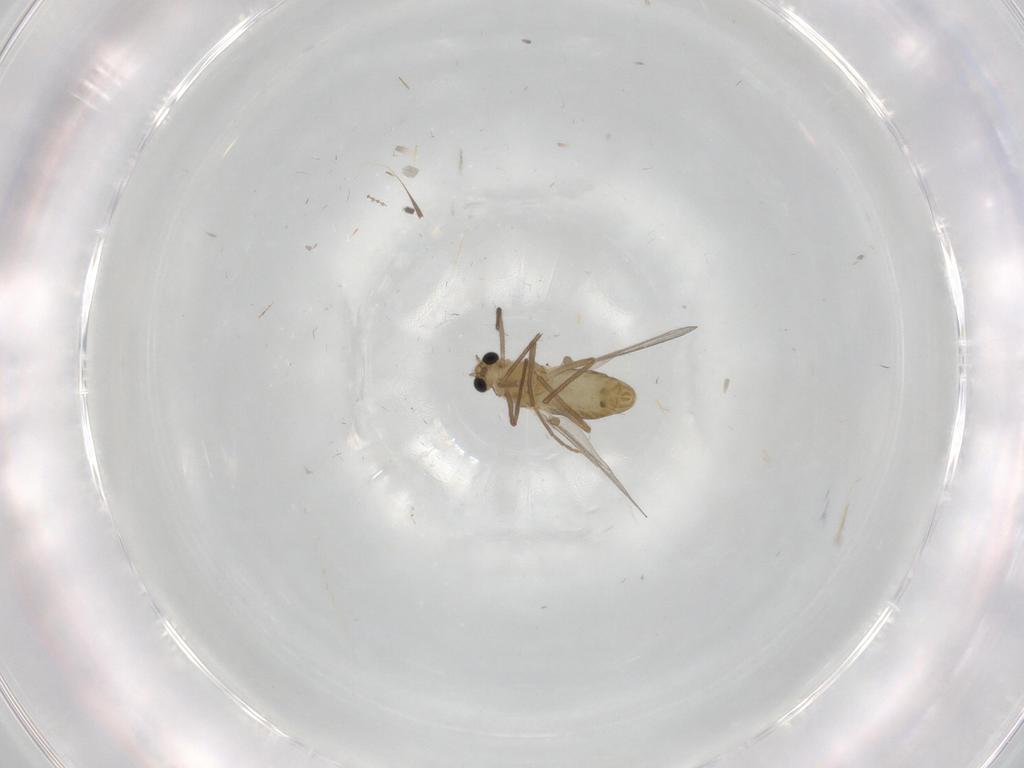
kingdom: Animalia
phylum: Arthropoda
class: Insecta
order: Diptera
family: Chironomidae
